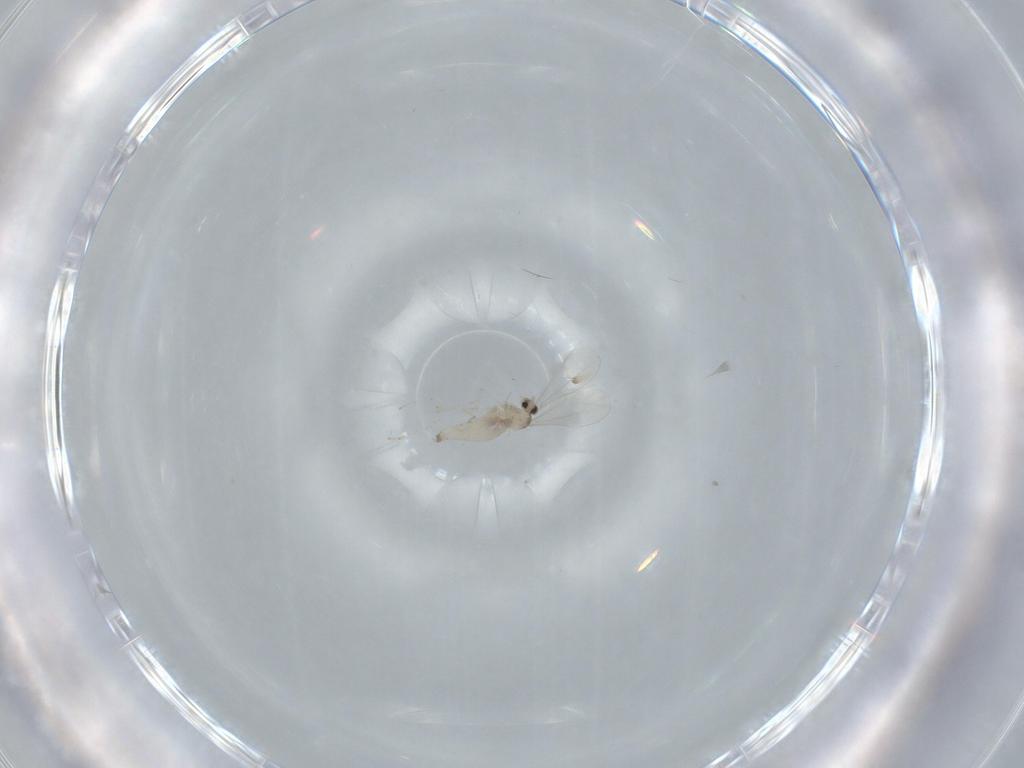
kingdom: Animalia
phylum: Arthropoda
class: Insecta
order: Diptera
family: Cecidomyiidae
